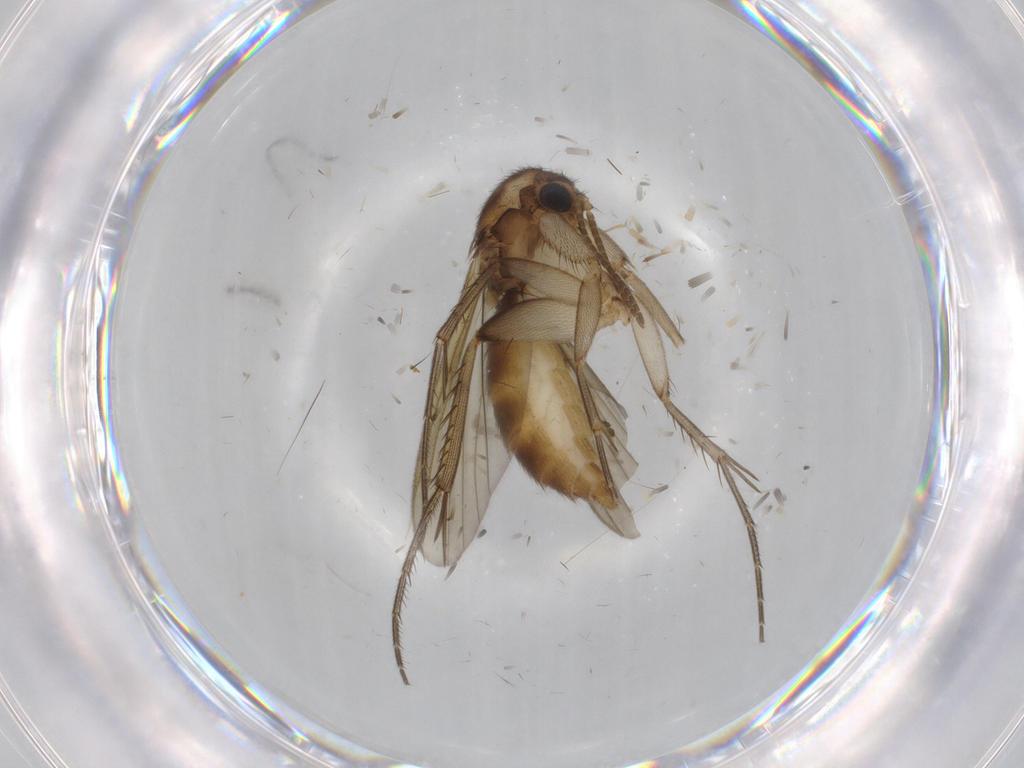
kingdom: Animalia
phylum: Arthropoda
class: Insecta
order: Diptera
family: Mycetophilidae
